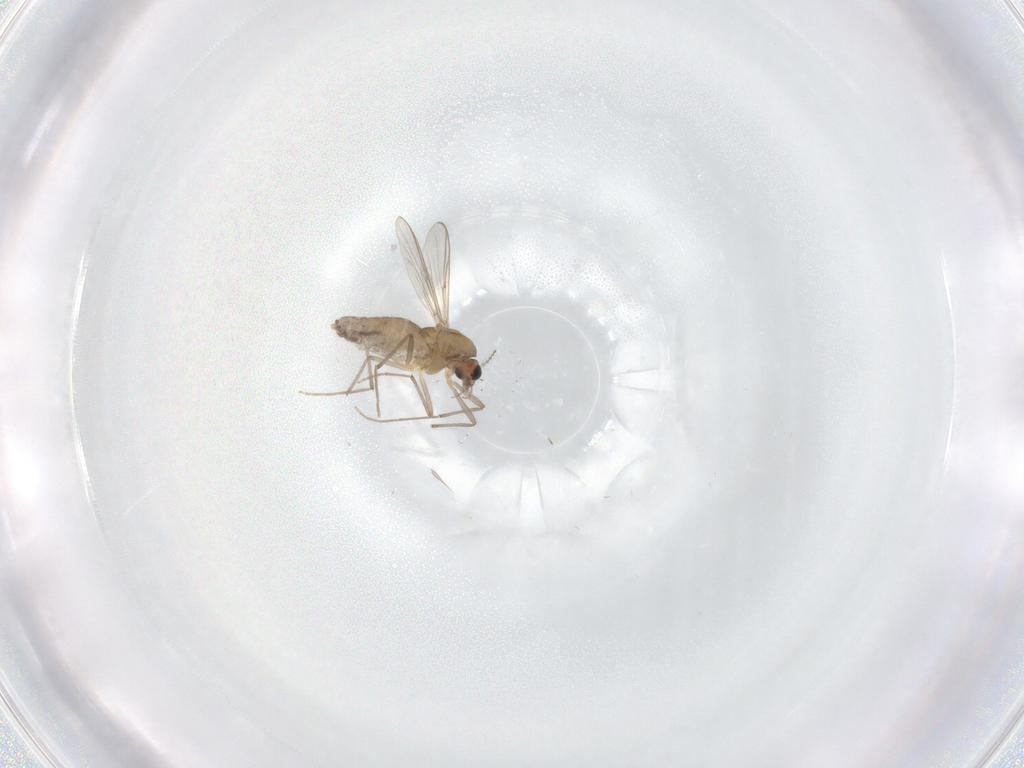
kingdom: Animalia
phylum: Arthropoda
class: Insecta
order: Diptera
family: Chironomidae
